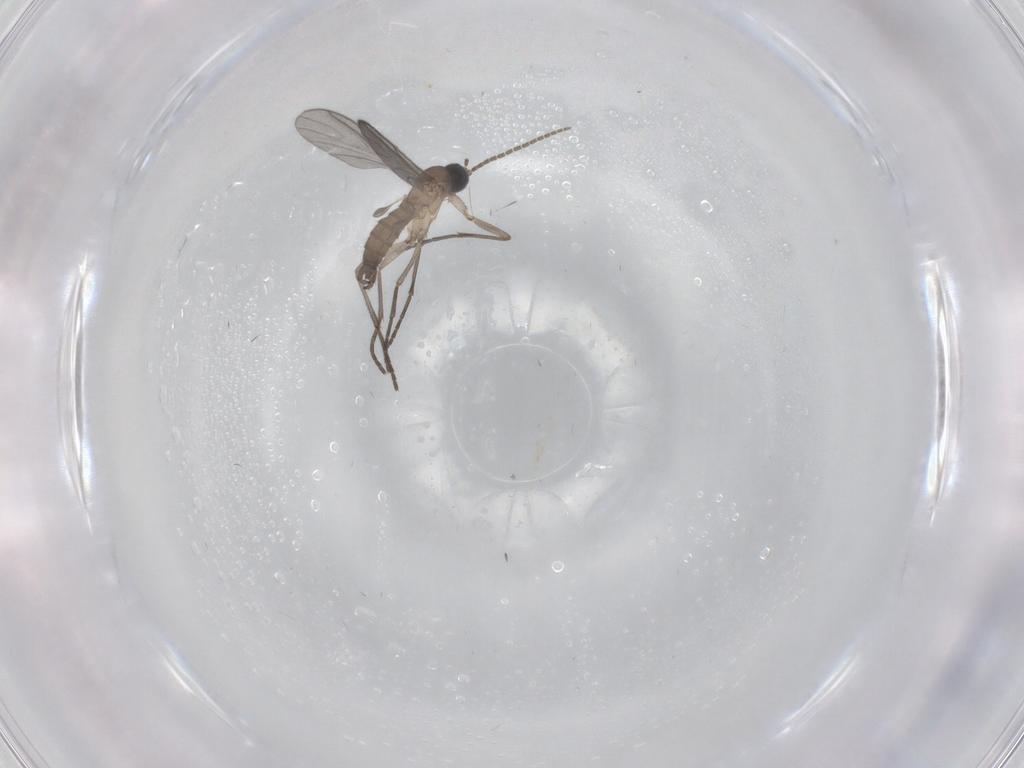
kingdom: Animalia
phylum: Arthropoda
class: Insecta
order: Diptera
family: Sciaridae
